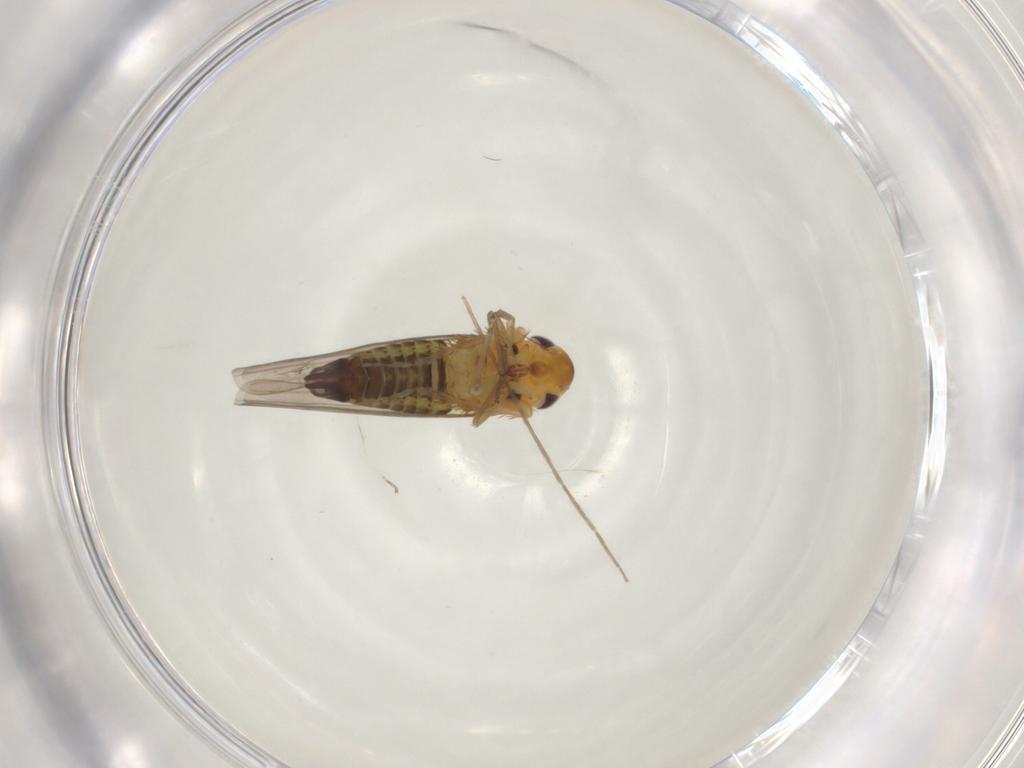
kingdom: Animalia
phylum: Arthropoda
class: Insecta
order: Hemiptera
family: Cicadellidae
